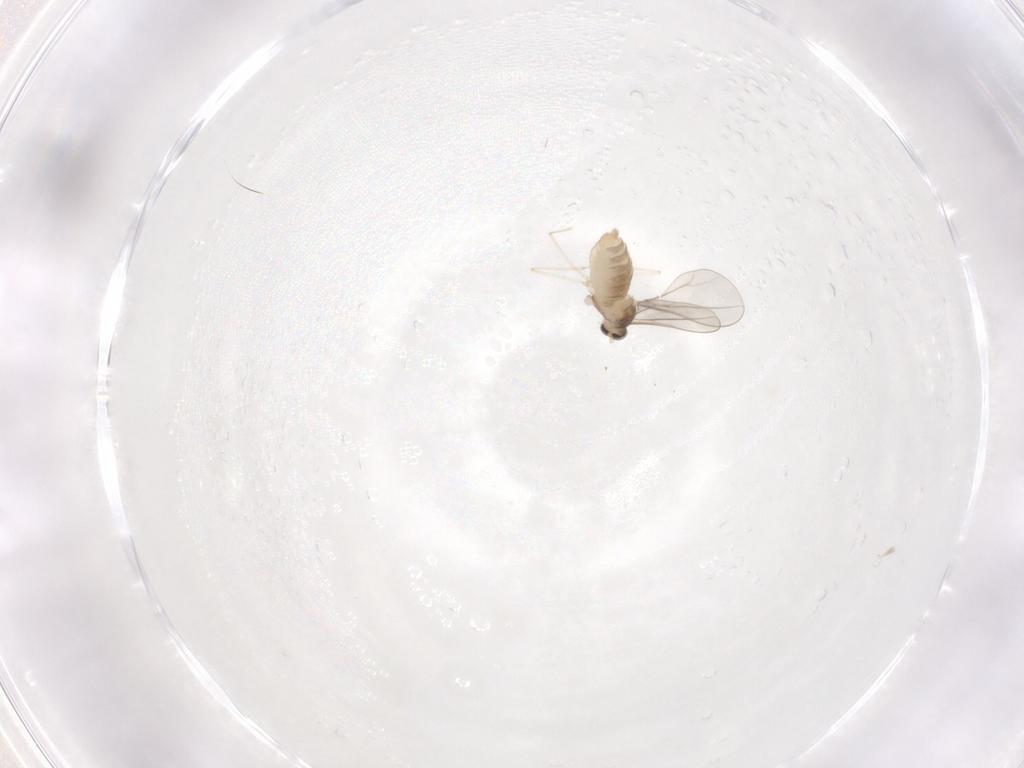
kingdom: Animalia
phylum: Arthropoda
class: Insecta
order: Diptera
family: Cecidomyiidae
